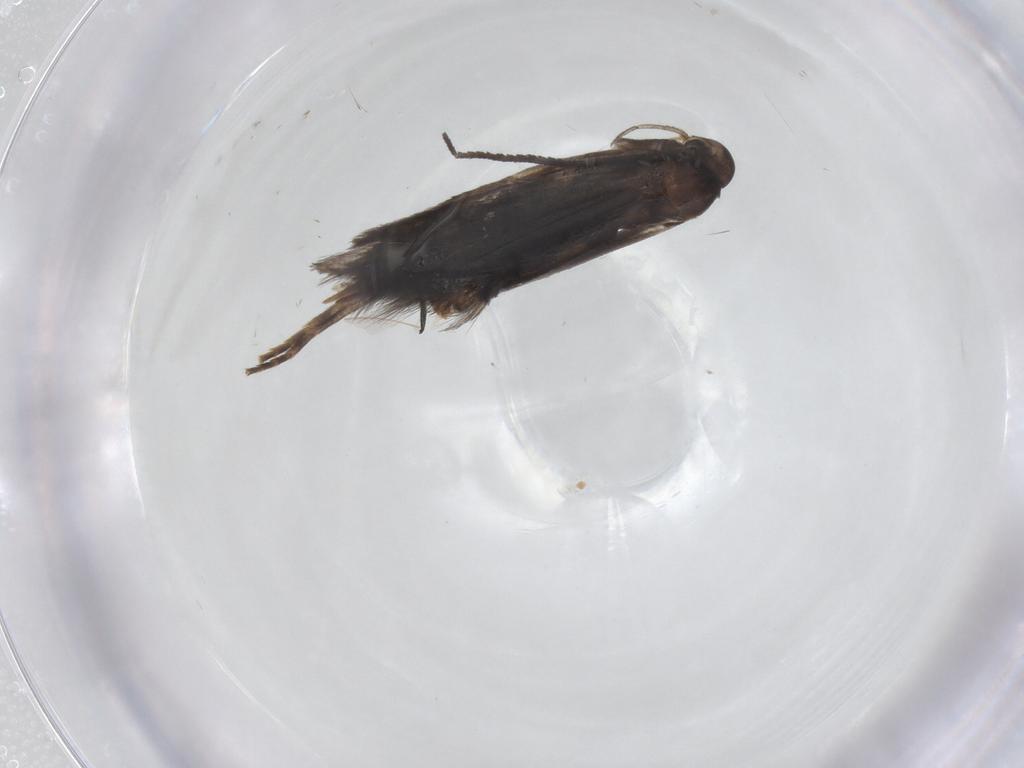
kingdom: Animalia
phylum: Arthropoda
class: Insecta
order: Lepidoptera
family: Elachistidae
